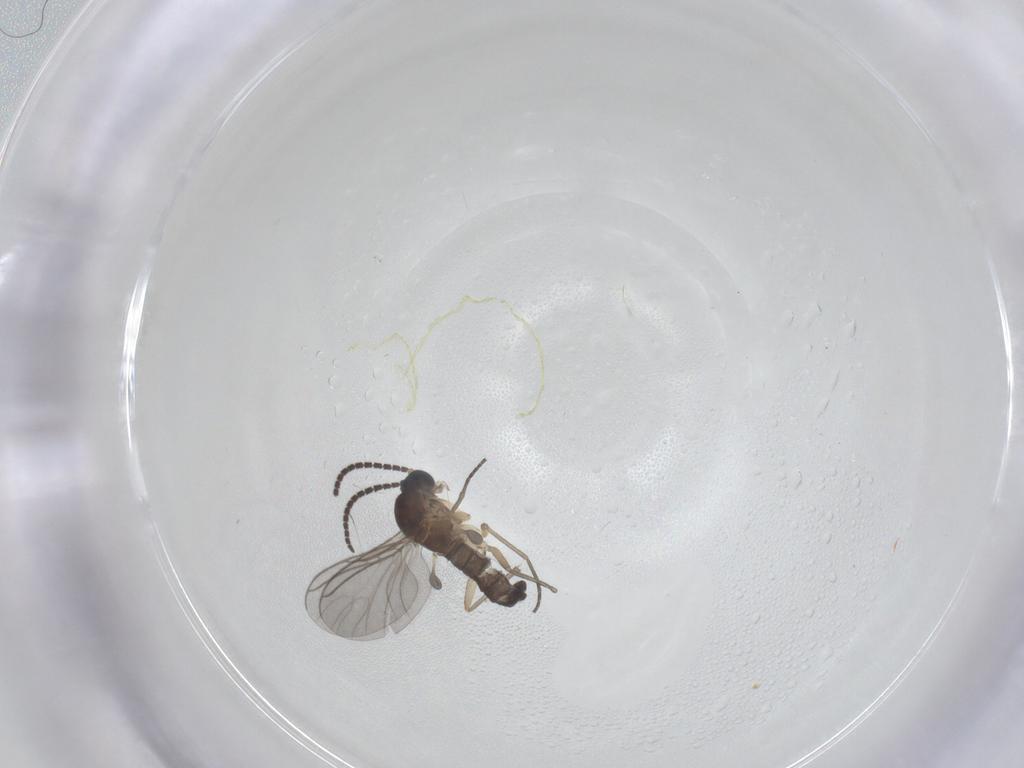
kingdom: Animalia
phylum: Arthropoda
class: Insecta
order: Diptera
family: Sciaridae
